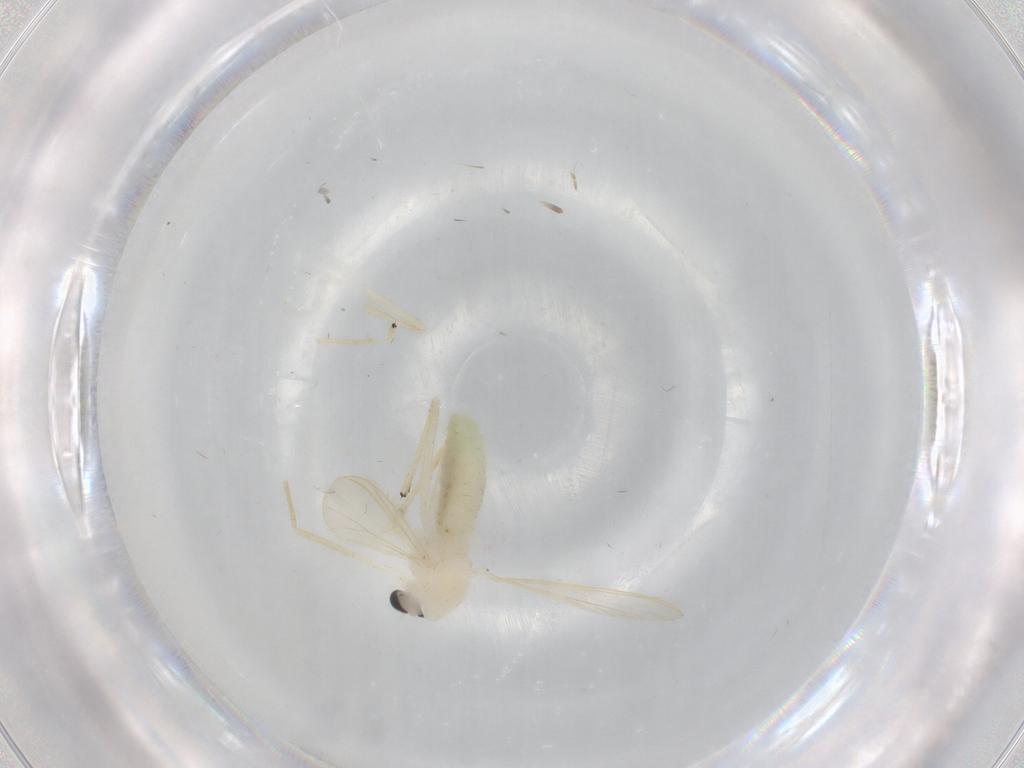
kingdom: Animalia
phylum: Arthropoda
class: Insecta
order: Diptera
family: Chironomidae
